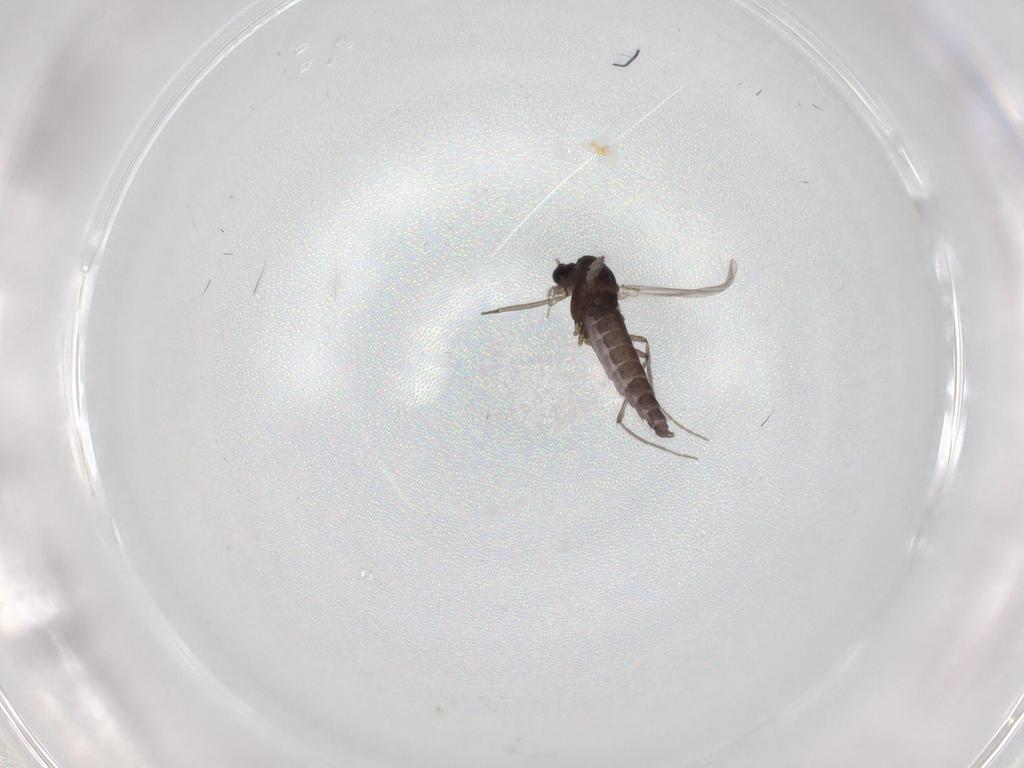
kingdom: Animalia
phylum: Arthropoda
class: Insecta
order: Diptera
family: Chironomidae
